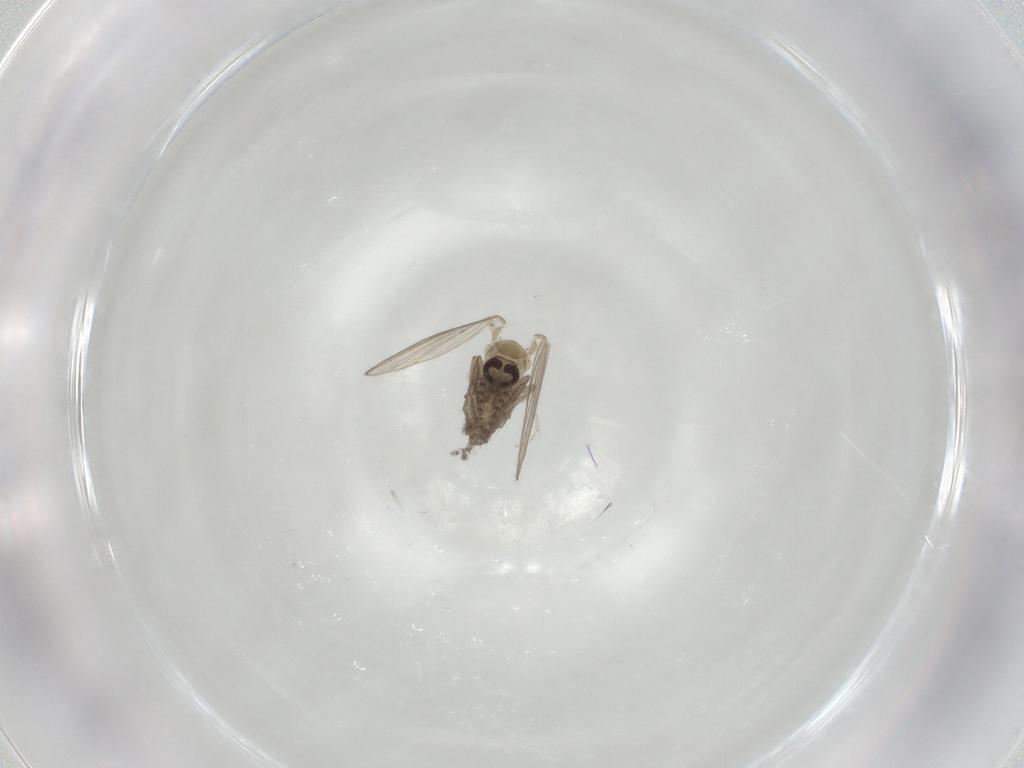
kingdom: Animalia
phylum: Arthropoda
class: Insecta
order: Diptera
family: Psychodidae
